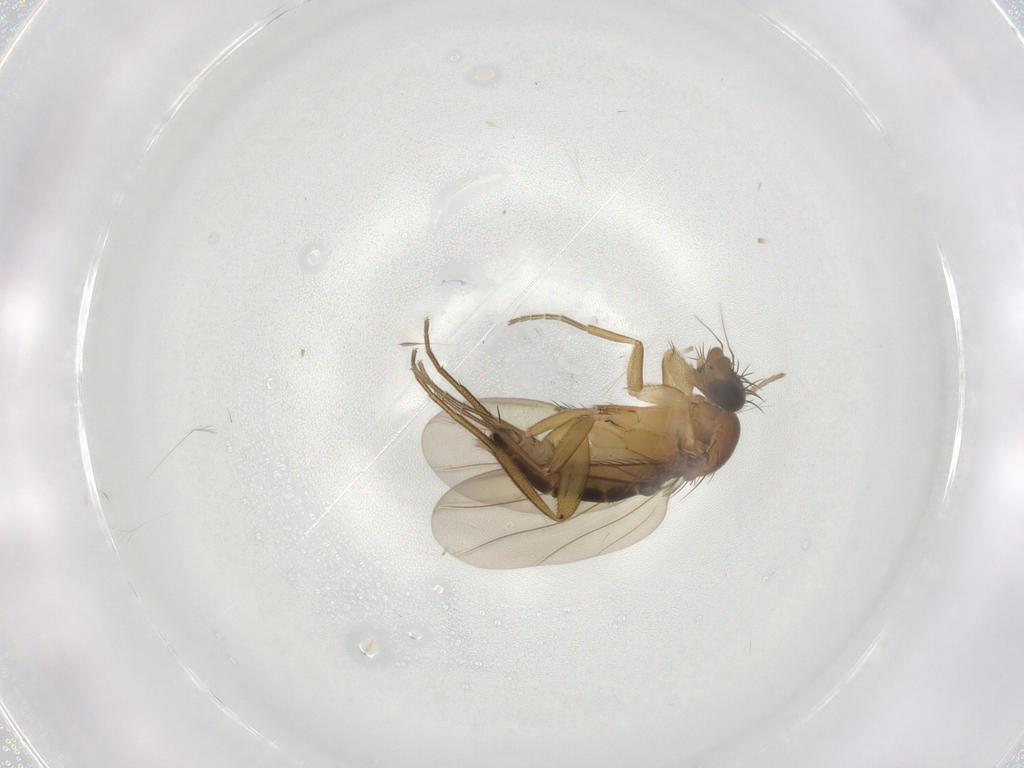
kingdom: Animalia
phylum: Arthropoda
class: Insecta
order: Diptera
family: Phoridae
